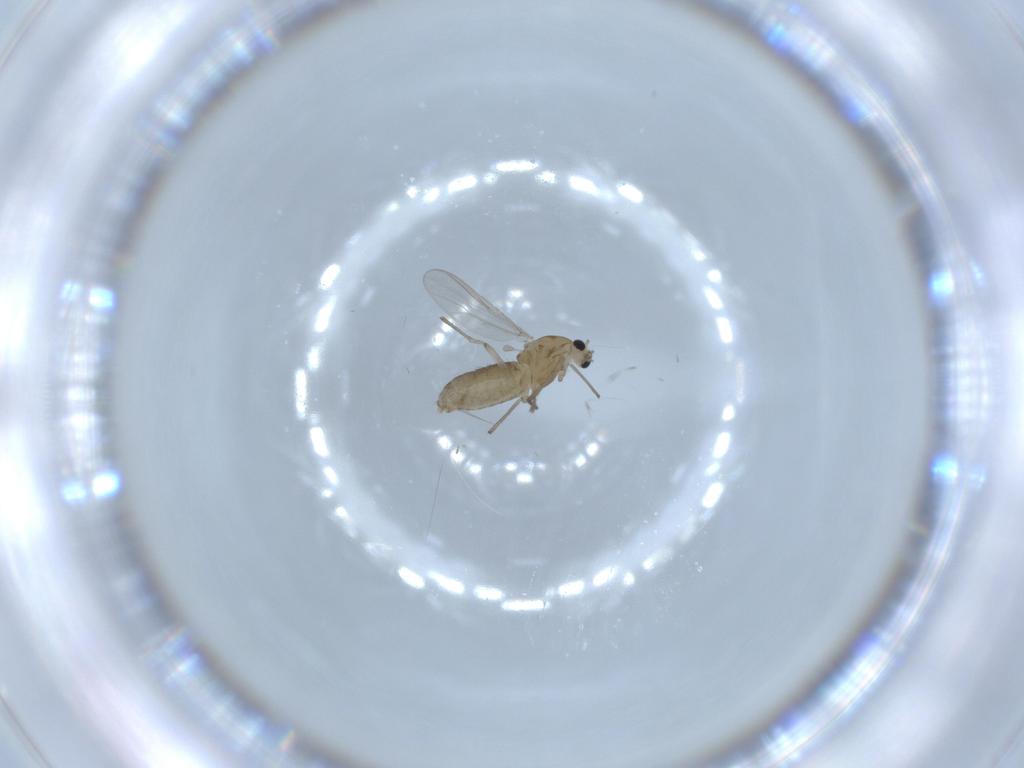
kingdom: Animalia
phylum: Arthropoda
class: Insecta
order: Diptera
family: Chironomidae
